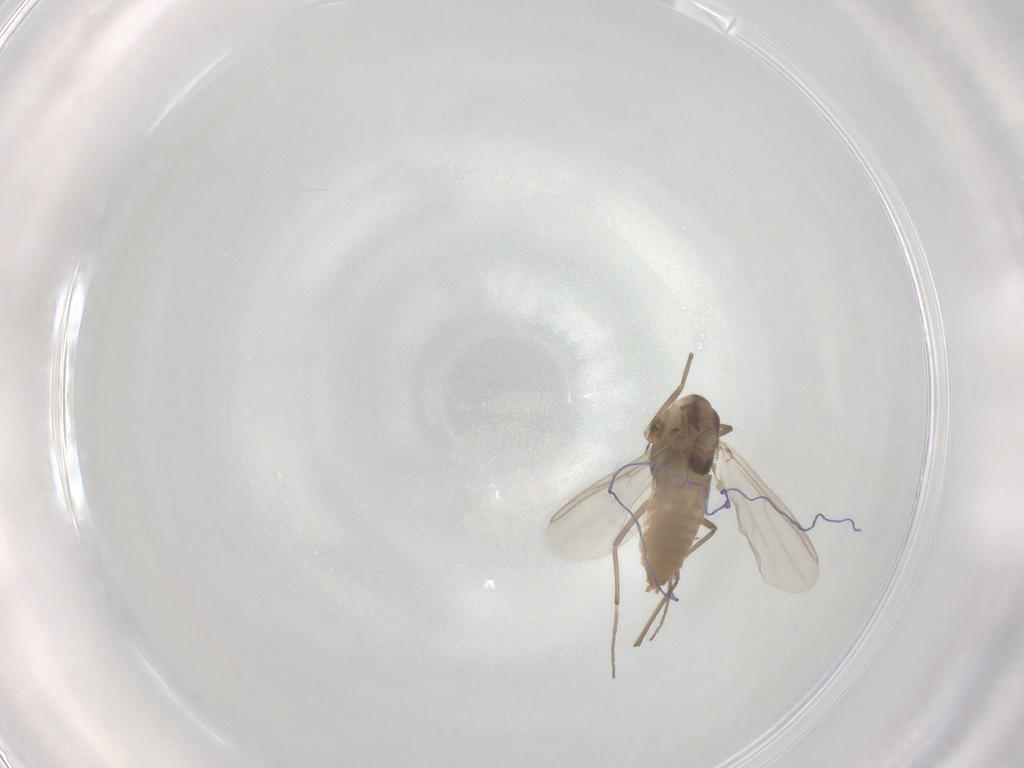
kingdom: Animalia
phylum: Arthropoda
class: Insecta
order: Diptera
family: Chironomidae
